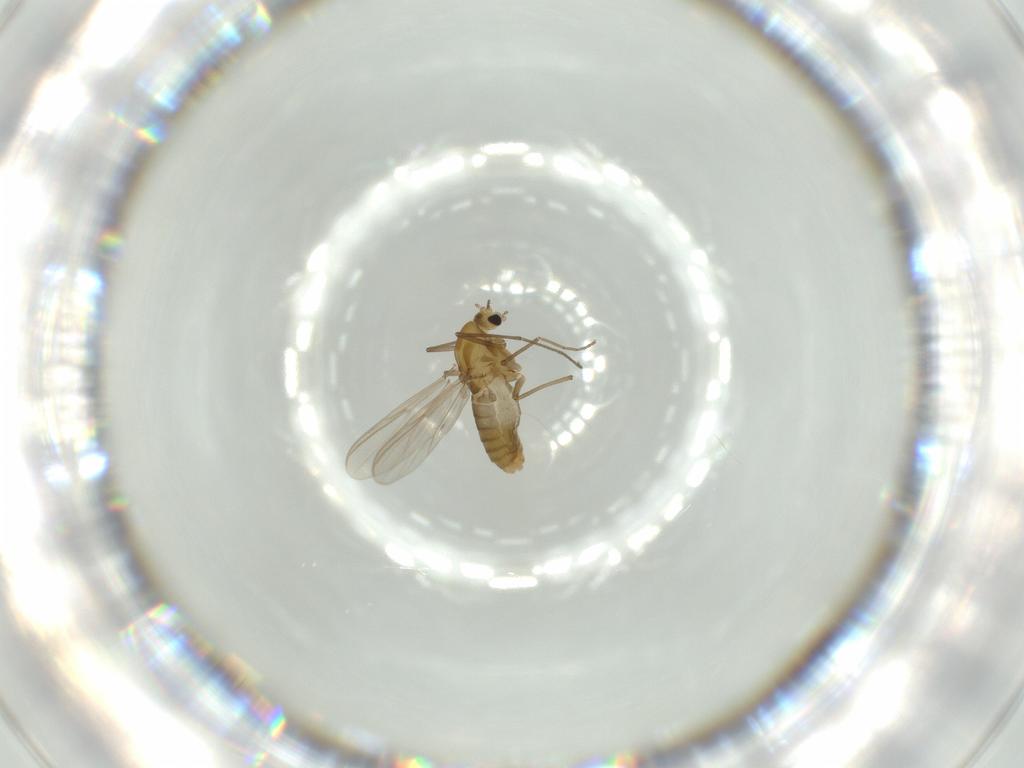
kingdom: Animalia
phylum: Arthropoda
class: Insecta
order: Diptera
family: Chironomidae
